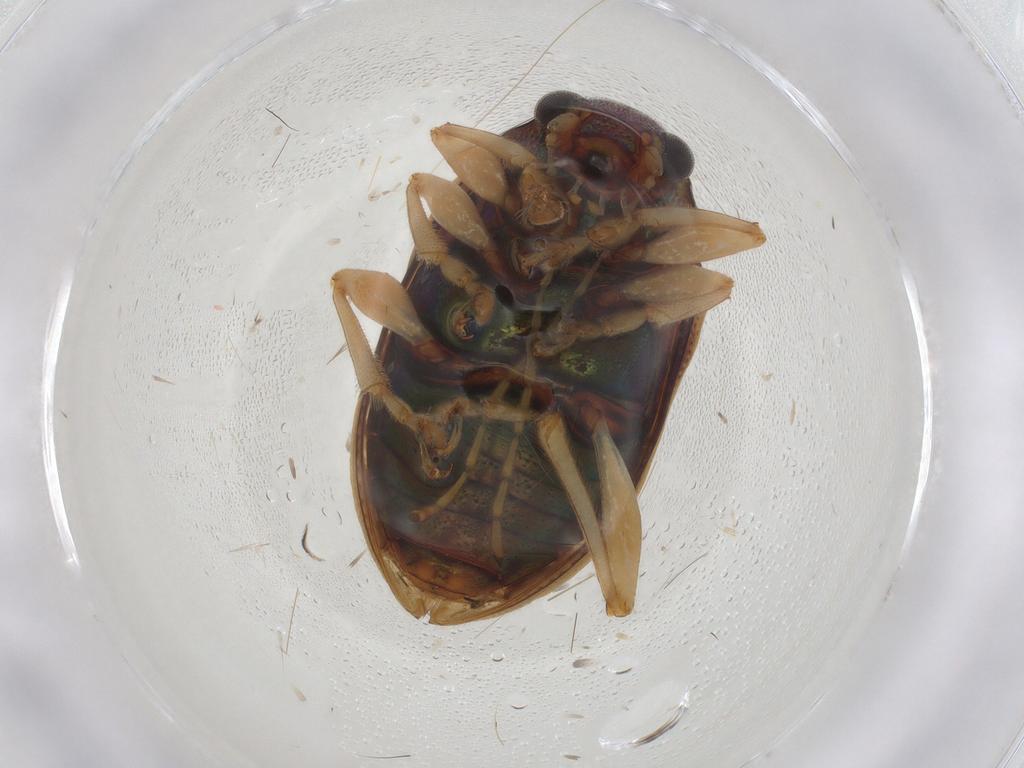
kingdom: Animalia
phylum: Arthropoda
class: Insecta
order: Coleoptera
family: Chrysomelidae
